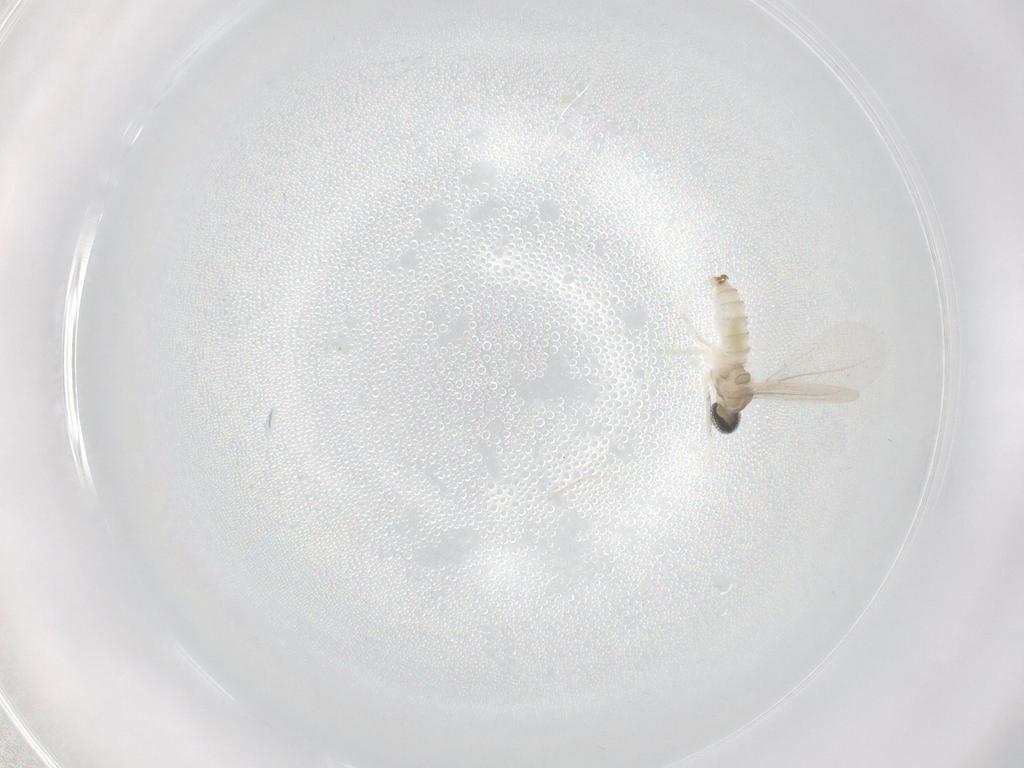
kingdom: Animalia
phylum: Arthropoda
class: Insecta
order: Diptera
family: Cecidomyiidae
